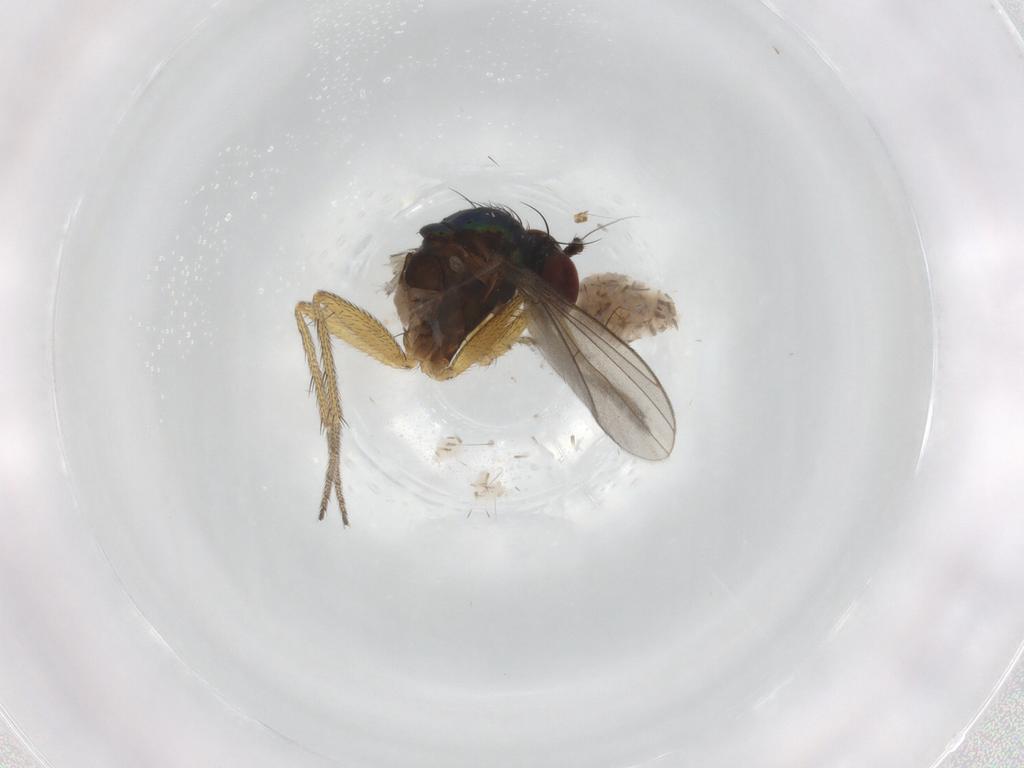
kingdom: Animalia
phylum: Arthropoda
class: Insecta
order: Diptera
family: Dolichopodidae
